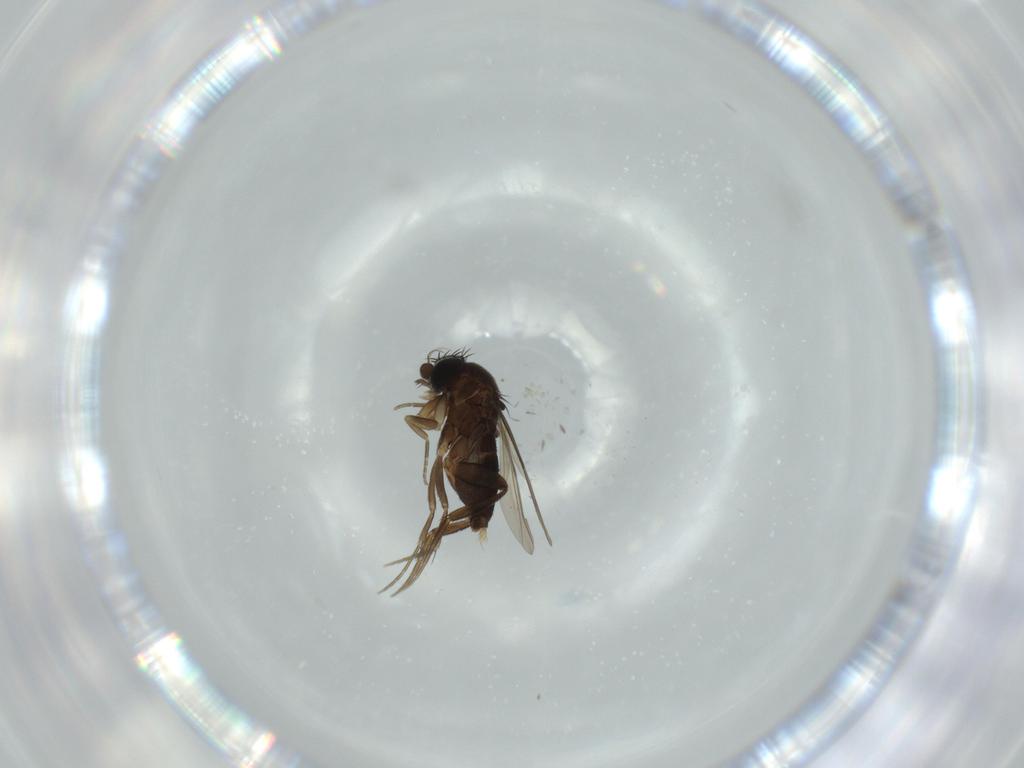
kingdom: Animalia
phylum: Arthropoda
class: Insecta
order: Diptera
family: Phoridae
